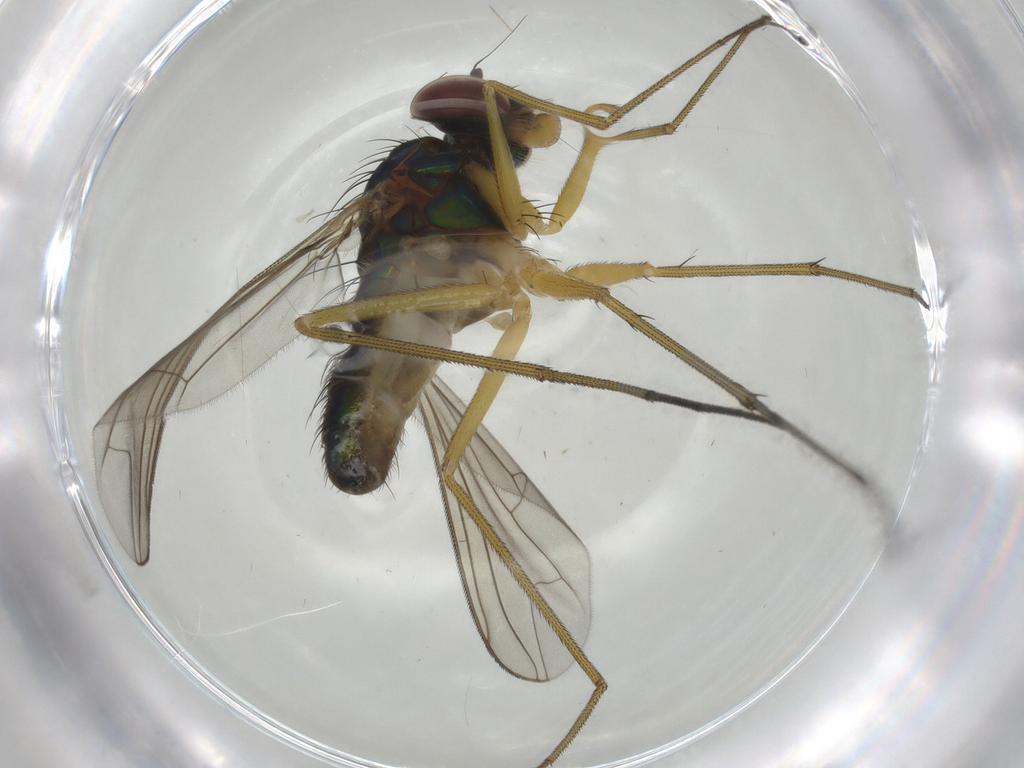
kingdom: Animalia
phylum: Arthropoda
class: Insecta
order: Diptera
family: Dolichopodidae
